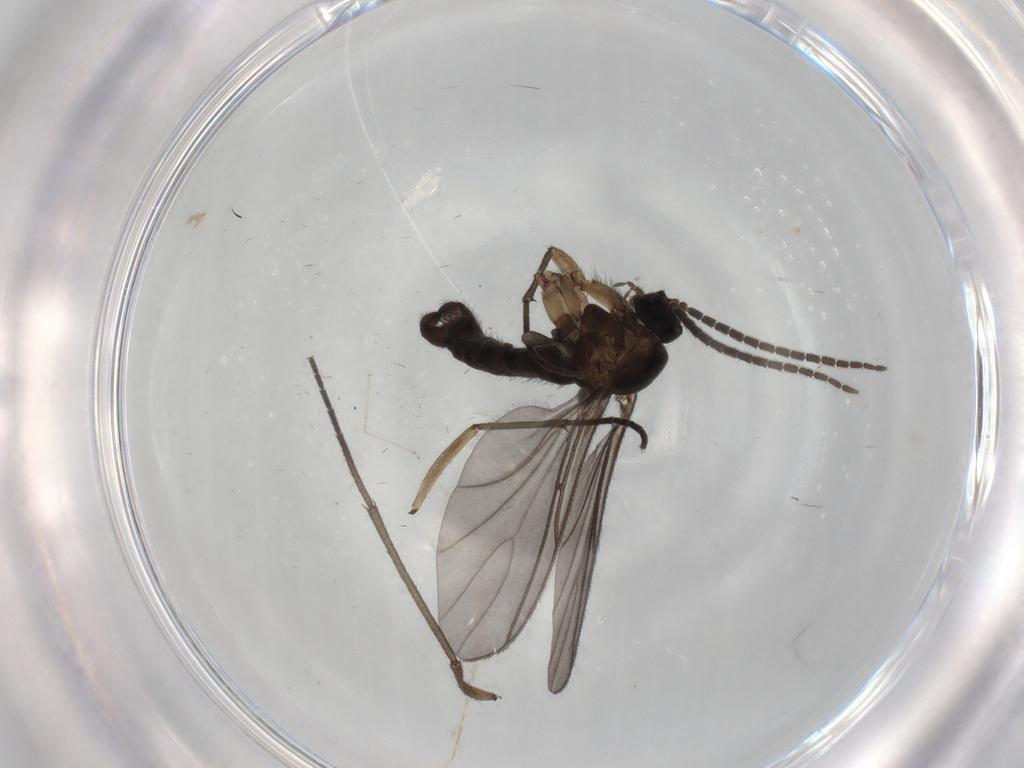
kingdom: Animalia
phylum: Arthropoda
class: Insecta
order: Diptera
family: Sciaridae
